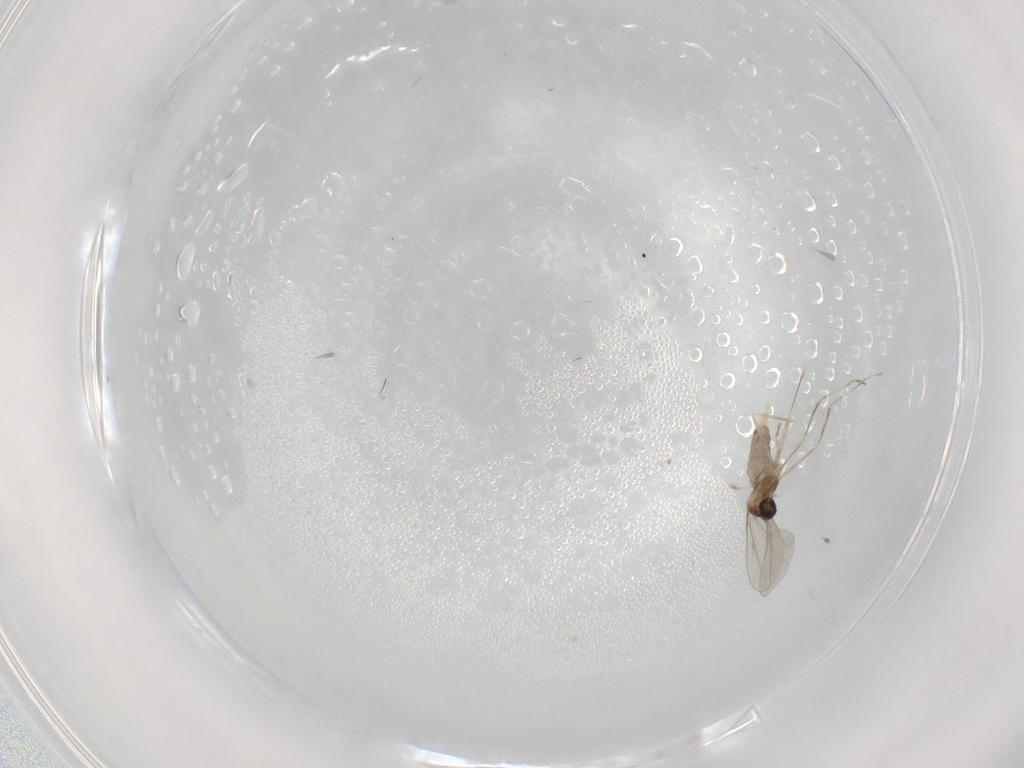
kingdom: Animalia
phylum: Arthropoda
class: Insecta
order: Diptera
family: Cecidomyiidae
